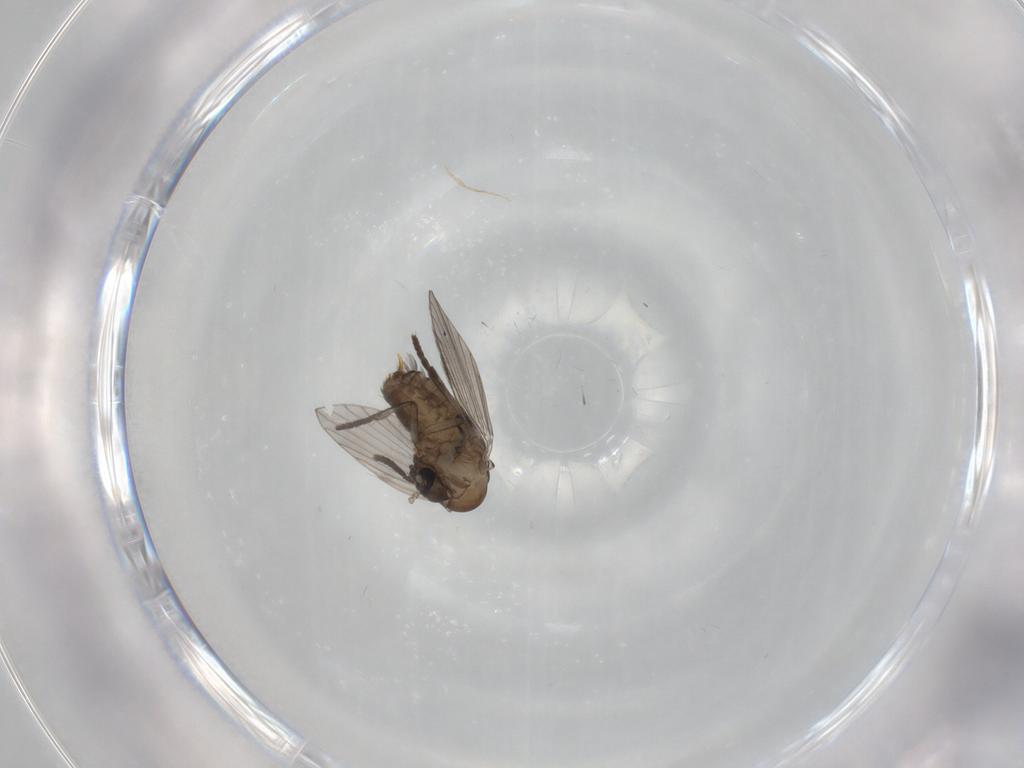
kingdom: Animalia
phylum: Arthropoda
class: Insecta
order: Diptera
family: Psychodidae
